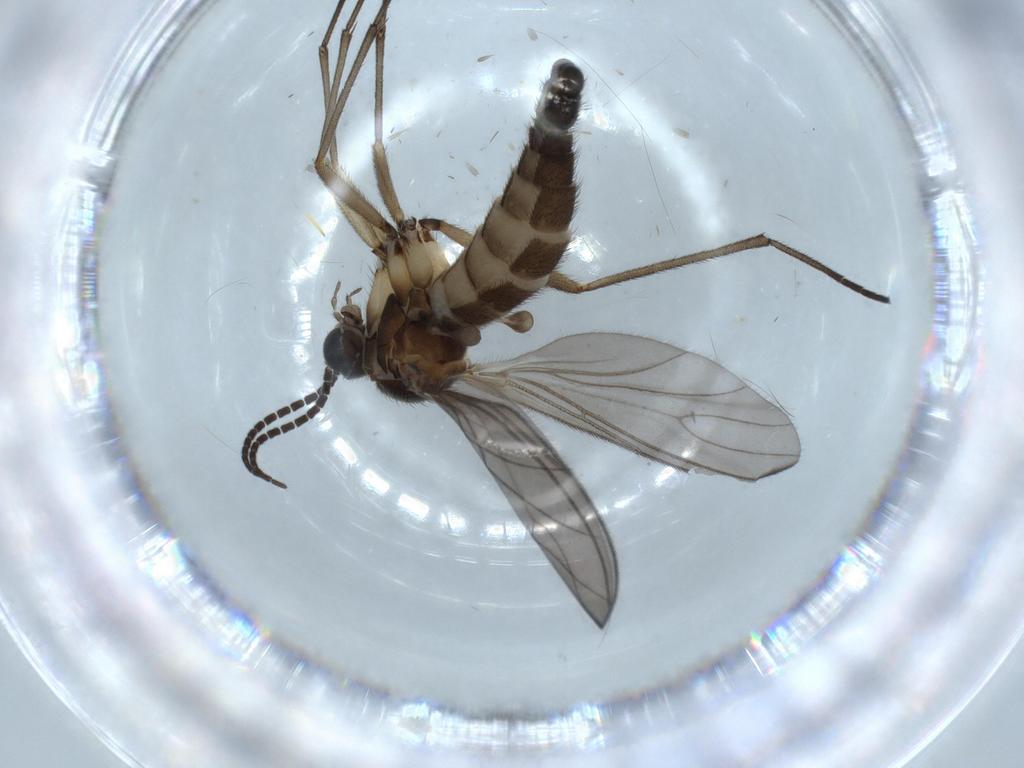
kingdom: Animalia
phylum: Arthropoda
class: Insecta
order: Diptera
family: Sciaridae
